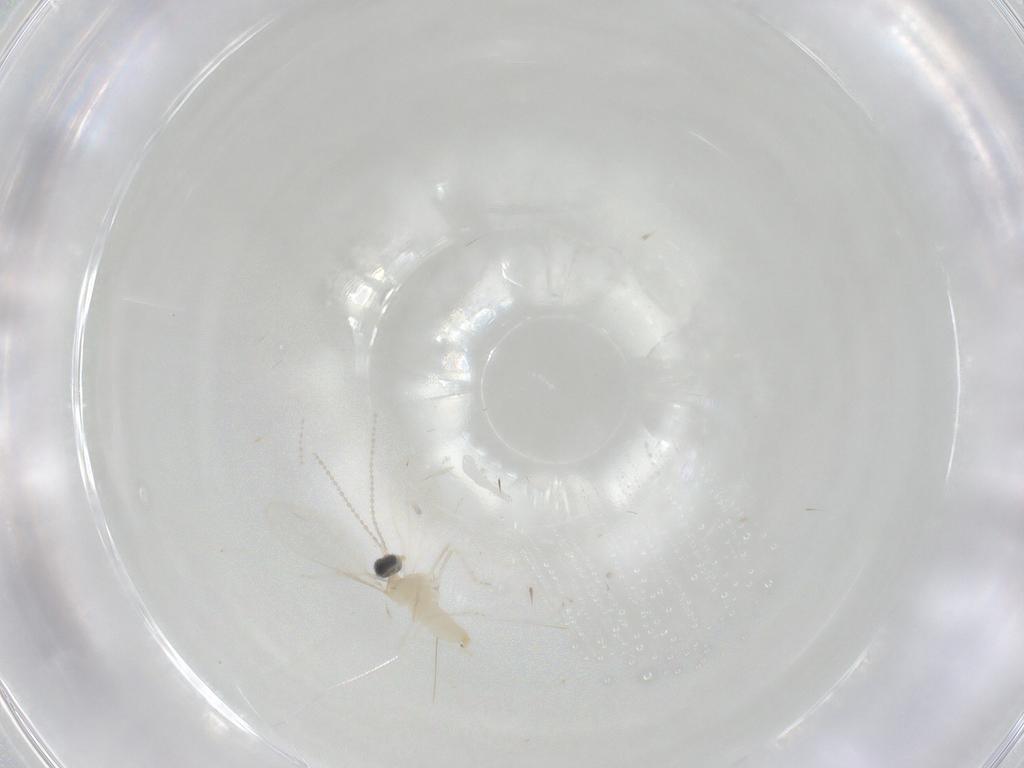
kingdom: Animalia
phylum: Arthropoda
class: Insecta
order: Diptera
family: Cecidomyiidae
